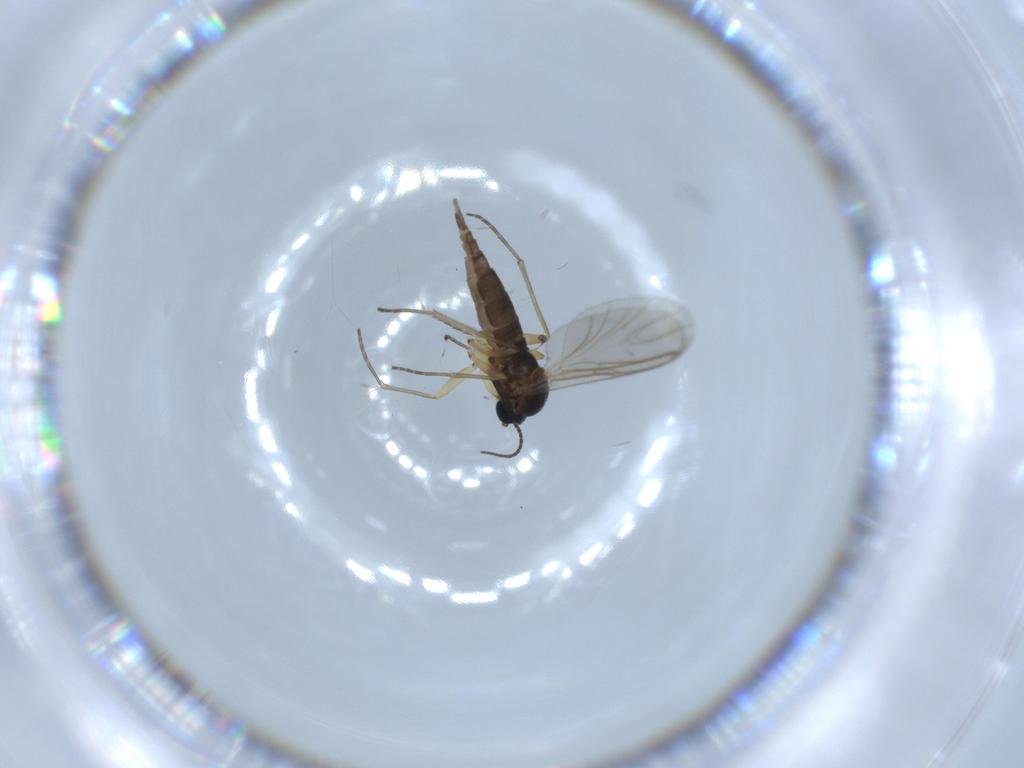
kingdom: Animalia
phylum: Arthropoda
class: Insecta
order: Diptera
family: Sciaridae
